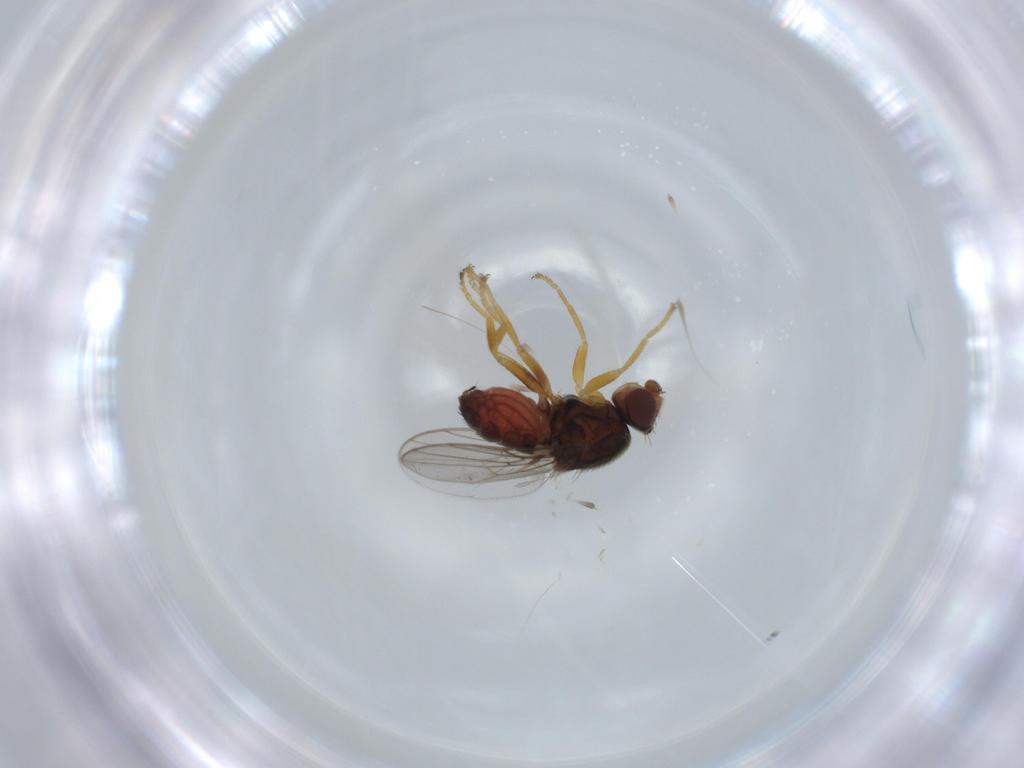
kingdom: Animalia
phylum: Arthropoda
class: Insecta
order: Diptera
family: Chloropidae
